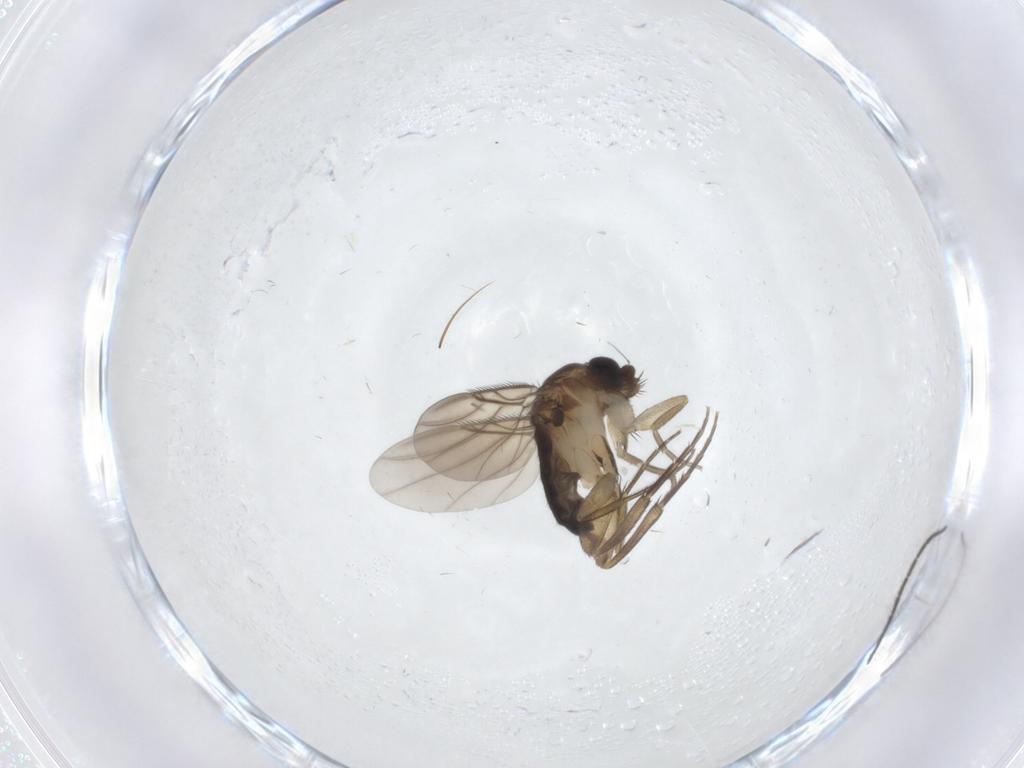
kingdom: Animalia
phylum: Arthropoda
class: Insecta
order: Diptera
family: Phoridae
